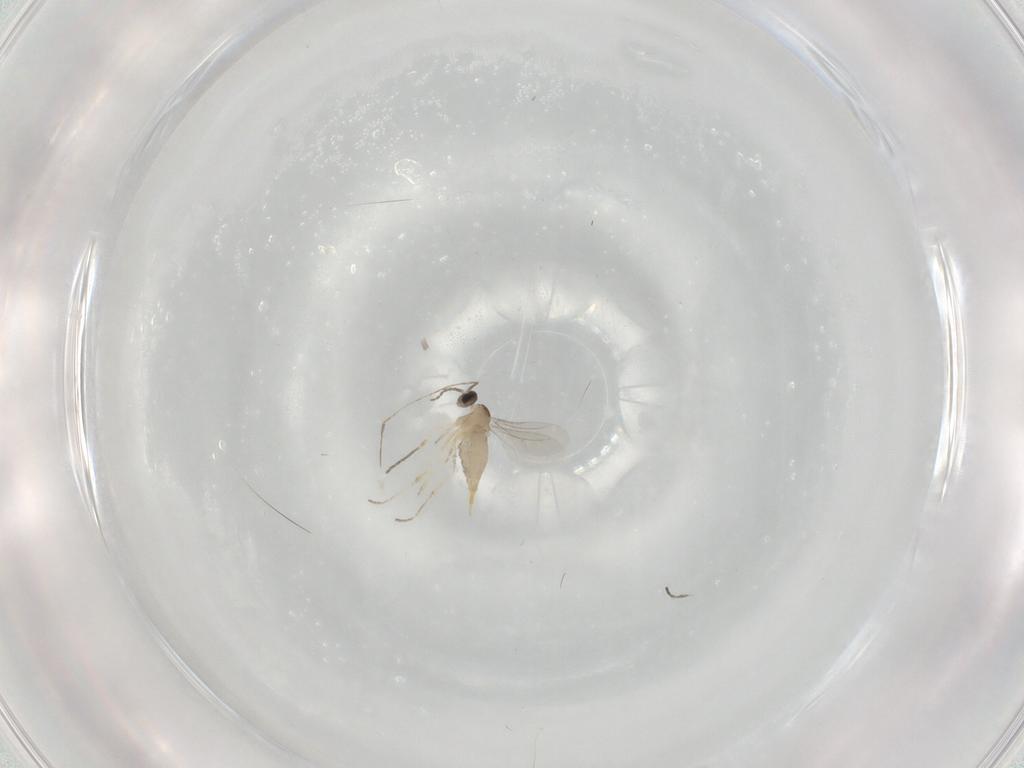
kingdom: Animalia
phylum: Arthropoda
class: Insecta
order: Diptera
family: Cecidomyiidae
